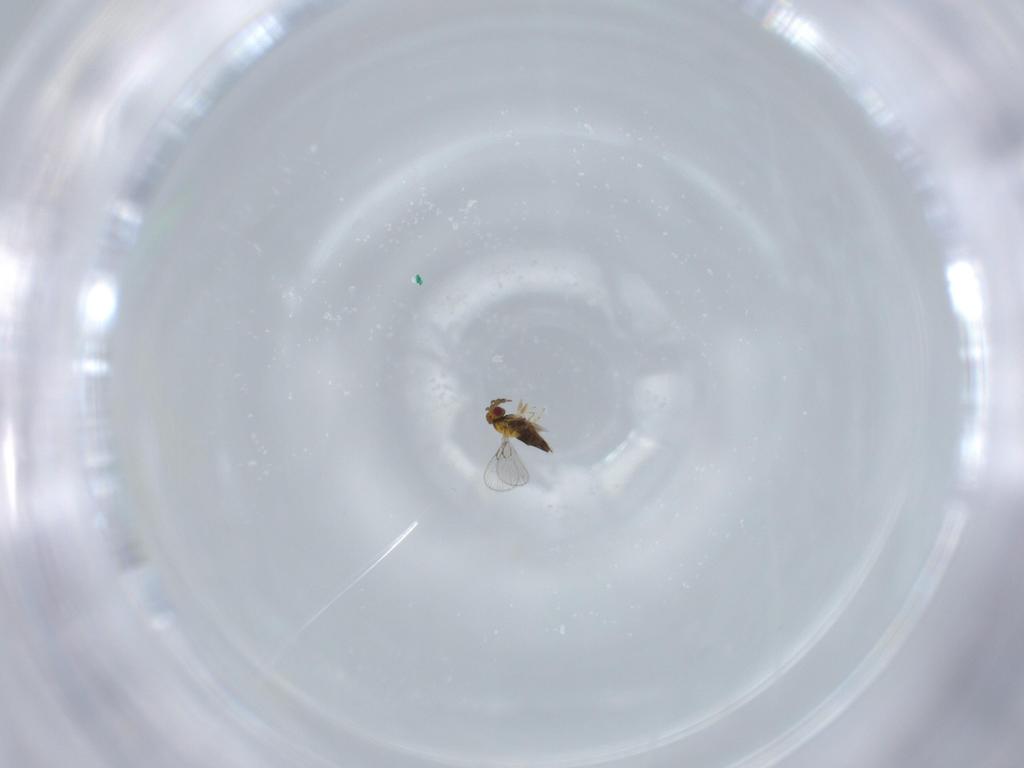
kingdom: Animalia
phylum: Arthropoda
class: Insecta
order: Hymenoptera
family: Trichogrammatidae
